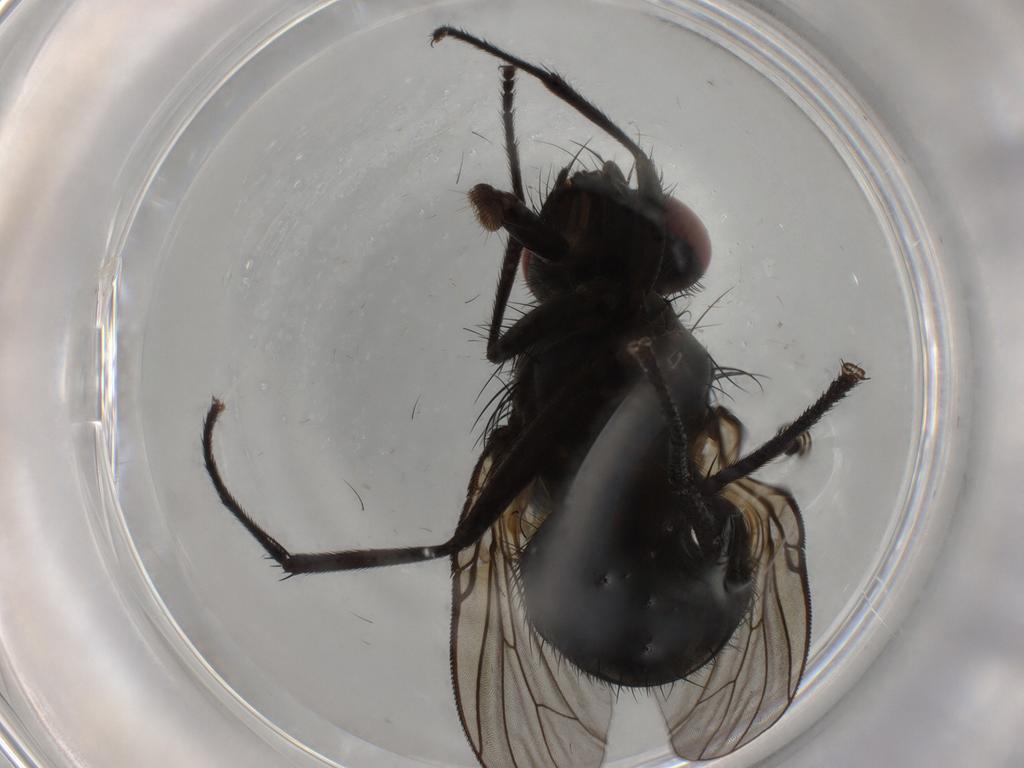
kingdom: Animalia
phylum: Arthropoda
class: Insecta
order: Diptera
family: Muscidae
